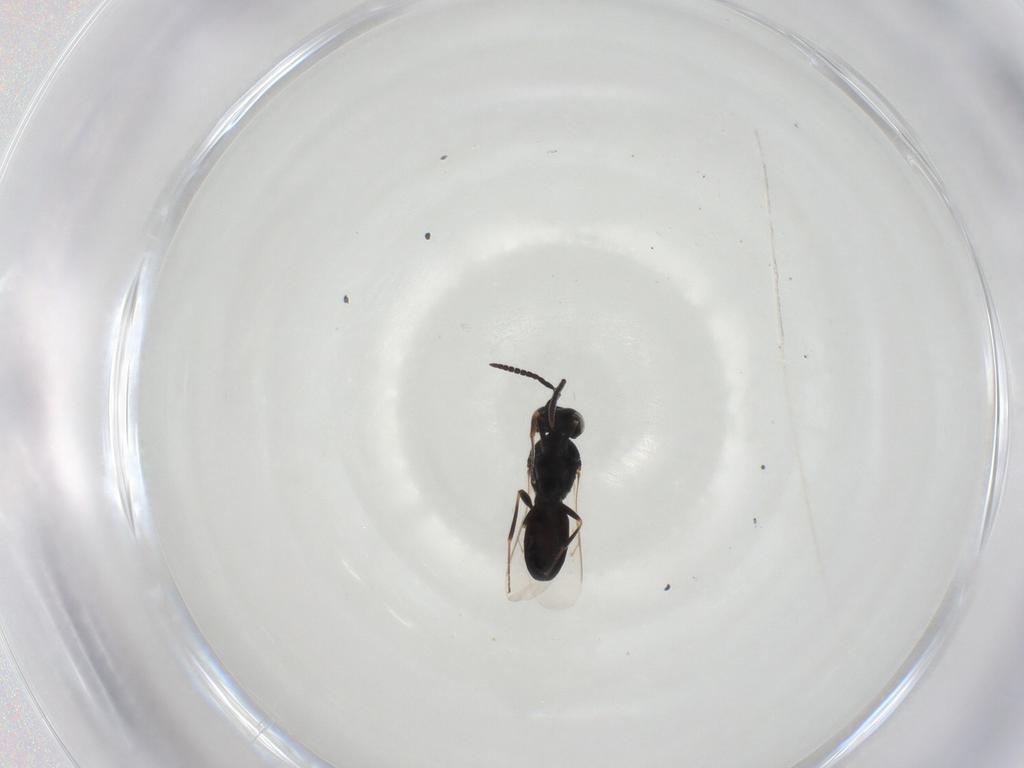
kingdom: Animalia
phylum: Arthropoda
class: Insecta
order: Hymenoptera
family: Scelionidae
